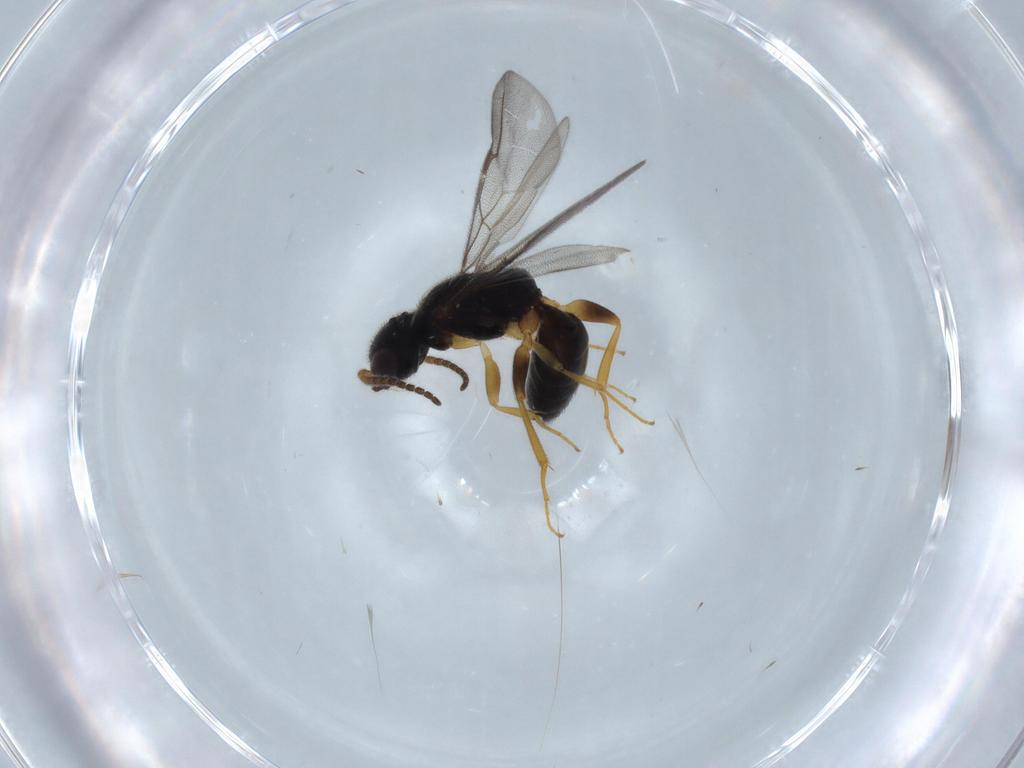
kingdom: Animalia
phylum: Arthropoda
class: Insecta
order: Hymenoptera
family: Bethylidae
